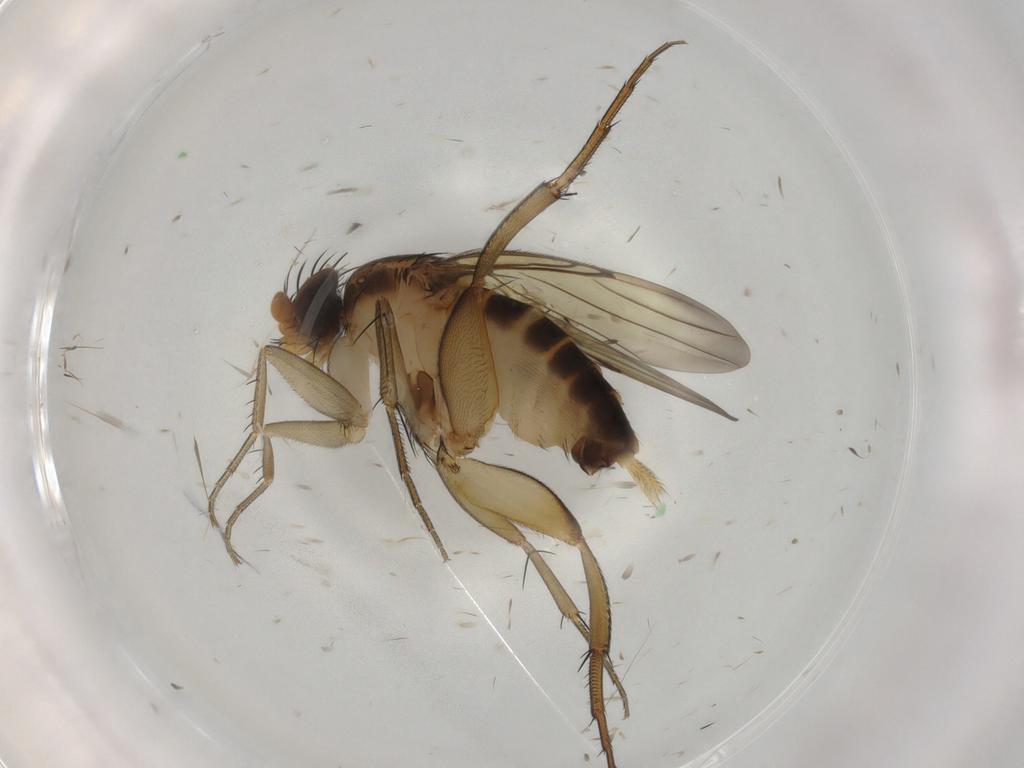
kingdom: Animalia
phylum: Arthropoda
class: Insecta
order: Diptera
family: Phoridae
